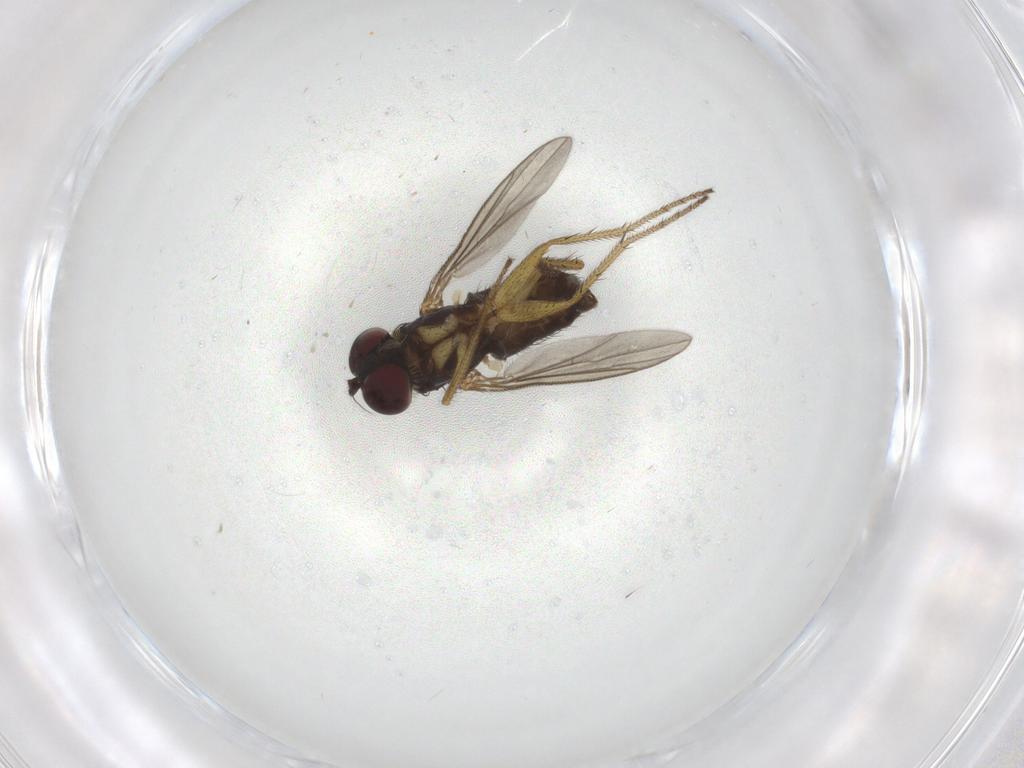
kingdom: Animalia
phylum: Arthropoda
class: Insecta
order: Diptera
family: Dolichopodidae
